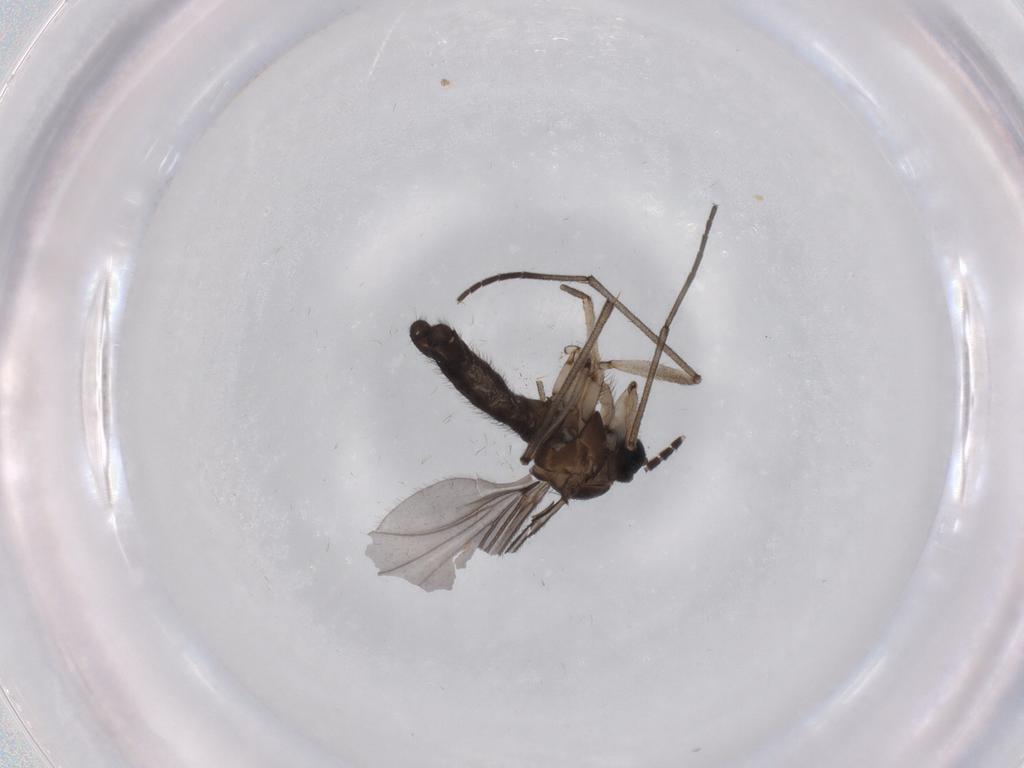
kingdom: Animalia
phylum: Arthropoda
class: Insecta
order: Diptera
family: Sciaridae
